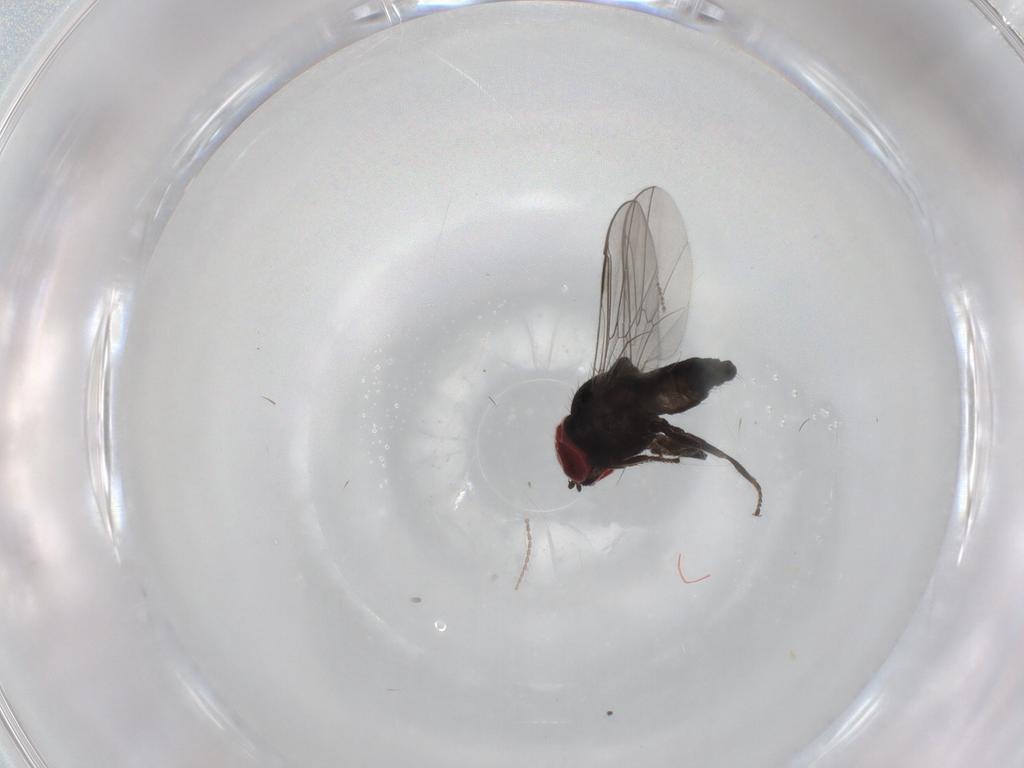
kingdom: Animalia
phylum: Arthropoda
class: Insecta
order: Diptera
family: Pipunculidae
